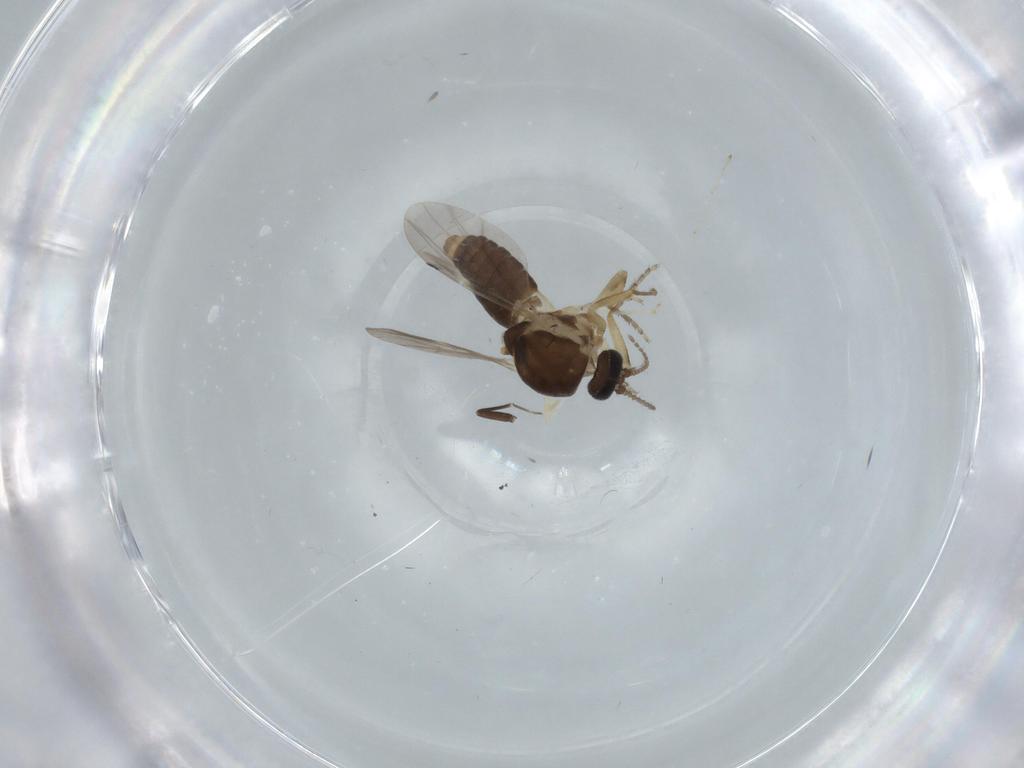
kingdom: Animalia
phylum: Arthropoda
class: Insecta
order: Diptera
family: Ceratopogonidae
